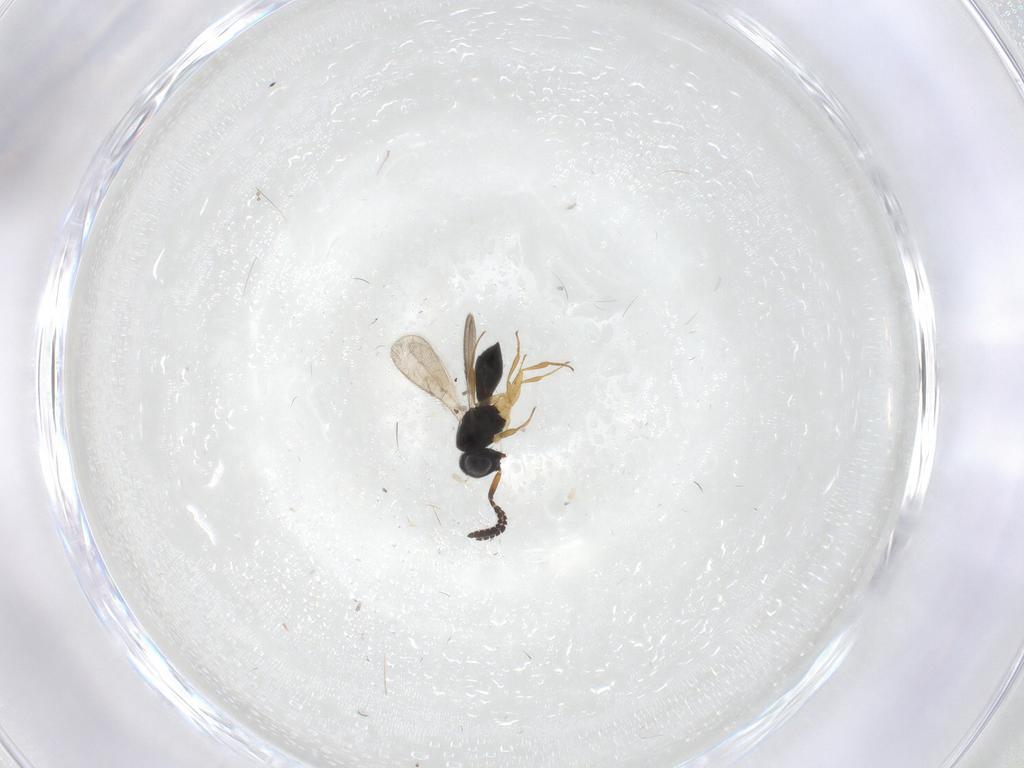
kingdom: Animalia
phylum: Arthropoda
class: Insecta
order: Hymenoptera
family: Scelionidae
